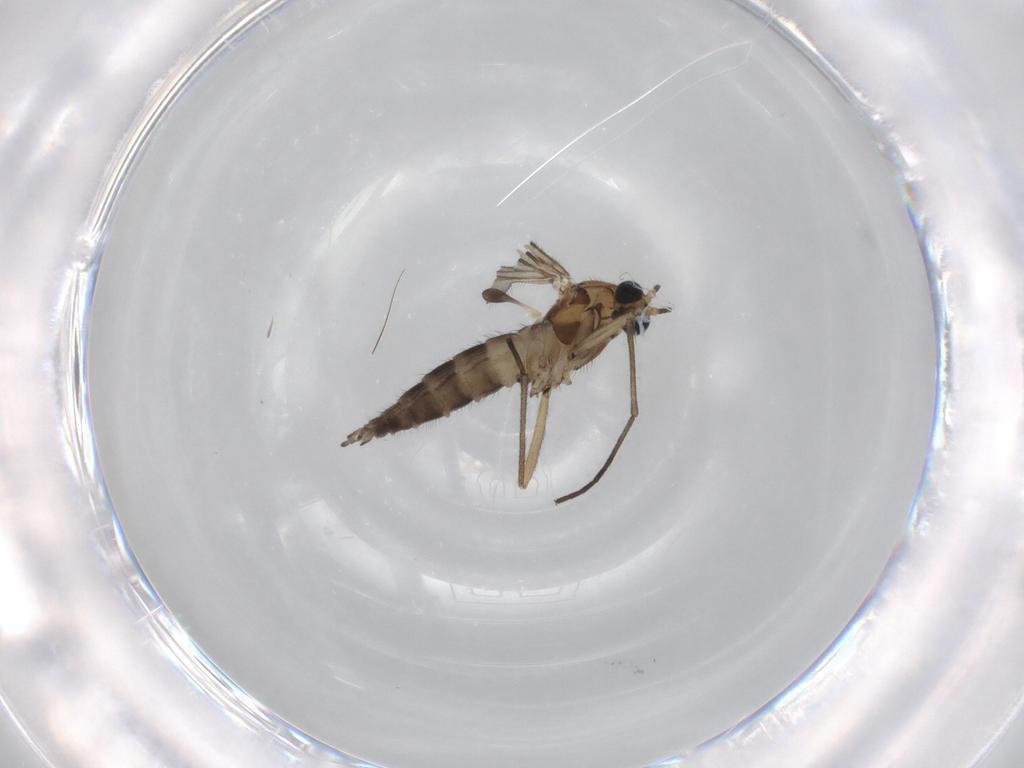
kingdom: Animalia
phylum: Arthropoda
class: Insecta
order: Diptera
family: Sciaridae
